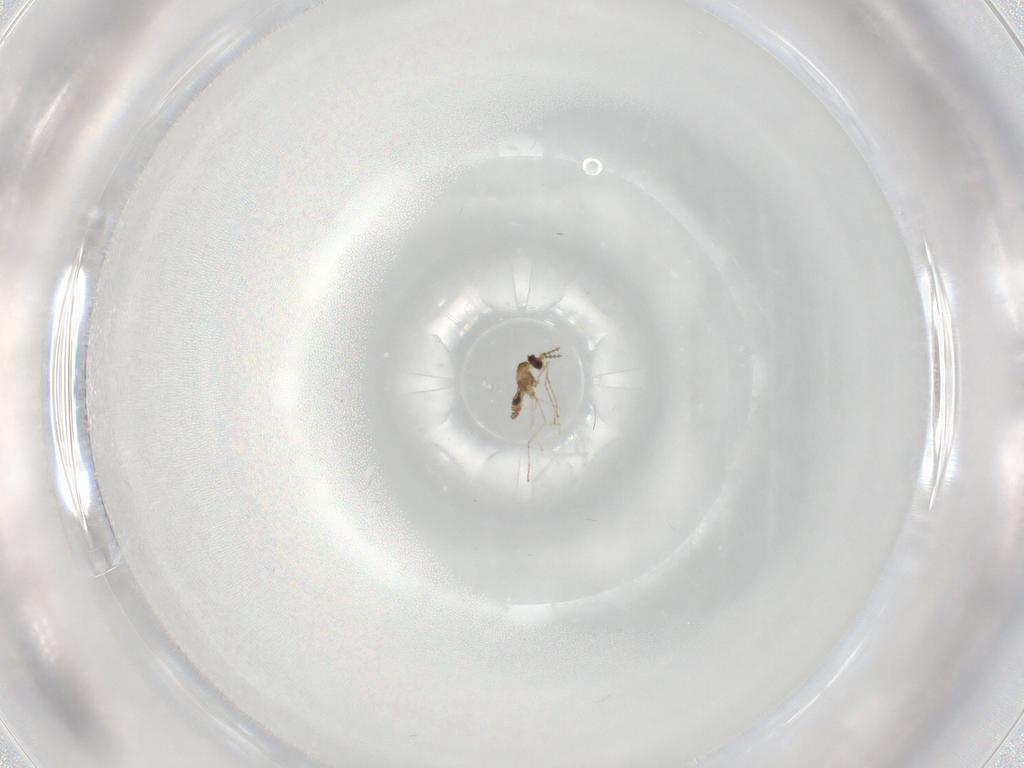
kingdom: Animalia
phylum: Arthropoda
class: Insecta
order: Diptera
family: Cecidomyiidae
